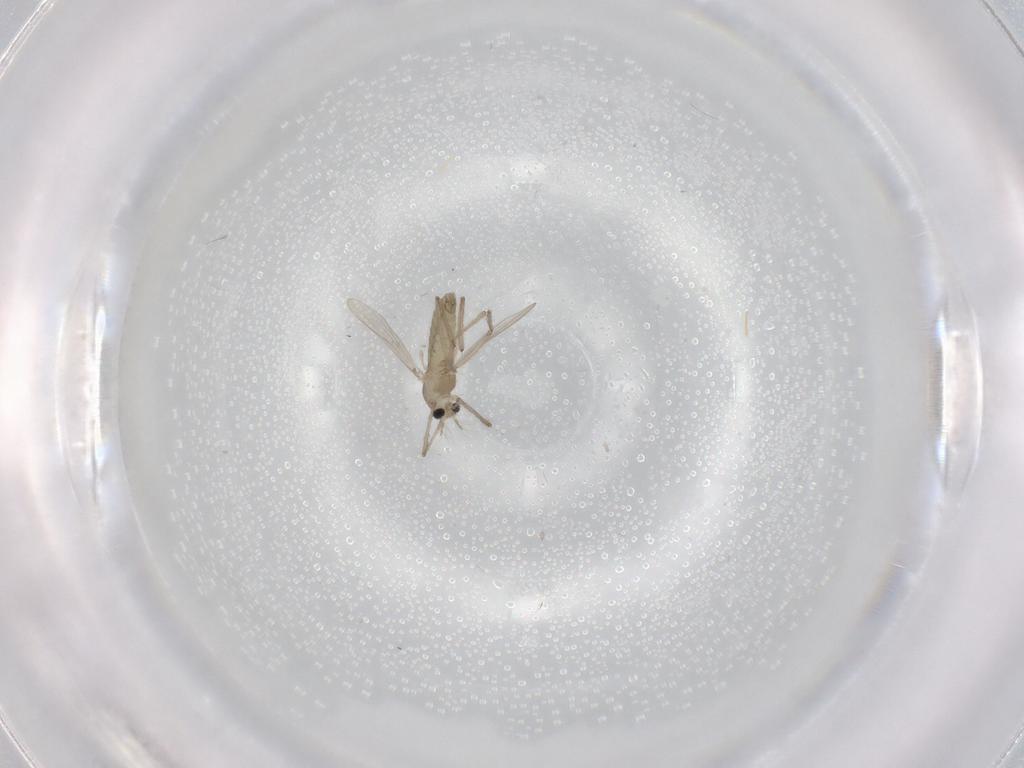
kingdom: Animalia
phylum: Arthropoda
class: Insecta
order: Diptera
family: Chironomidae
